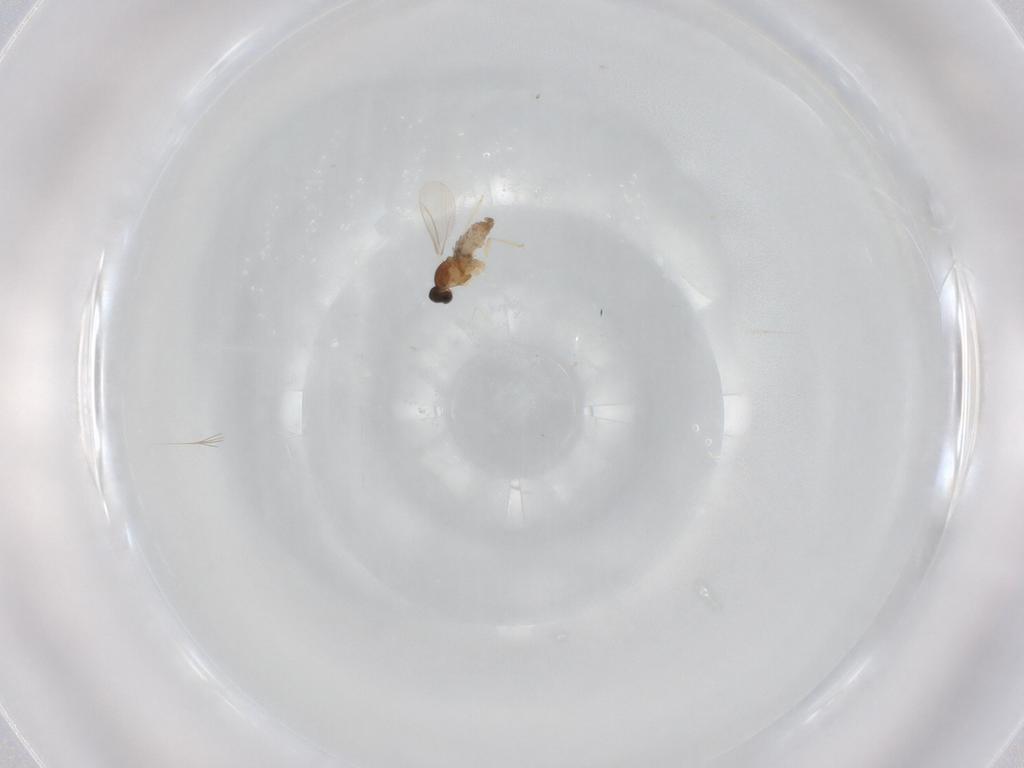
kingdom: Animalia
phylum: Arthropoda
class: Insecta
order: Diptera
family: Cecidomyiidae
